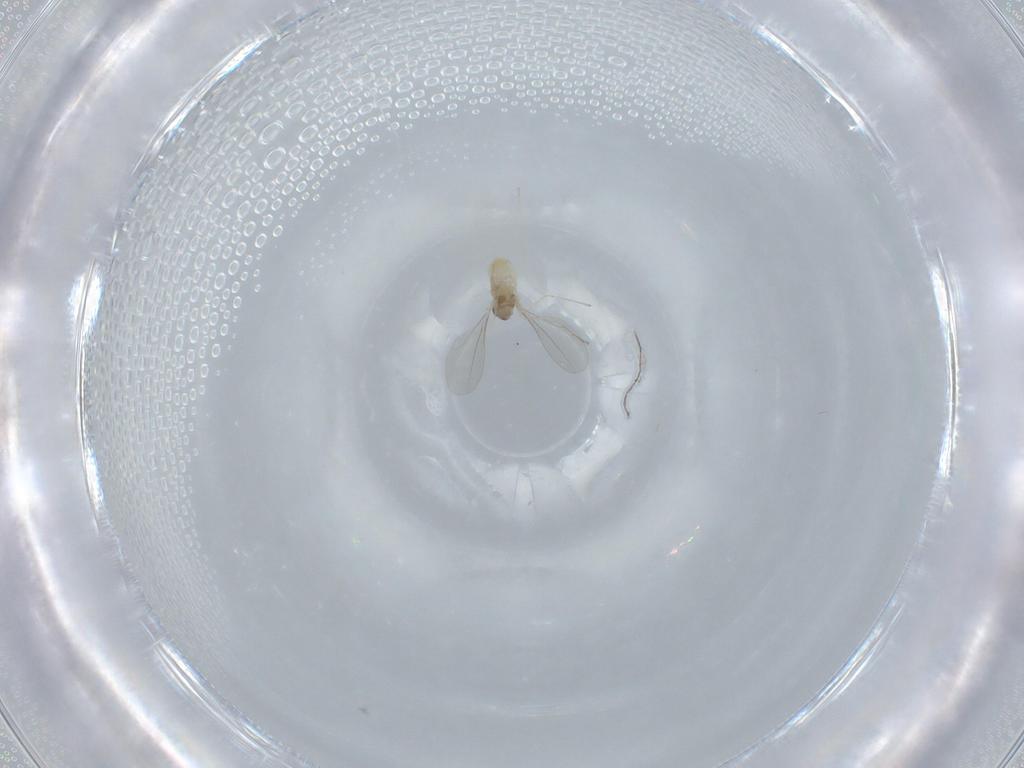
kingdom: Animalia
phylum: Arthropoda
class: Insecta
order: Diptera
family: Cecidomyiidae
